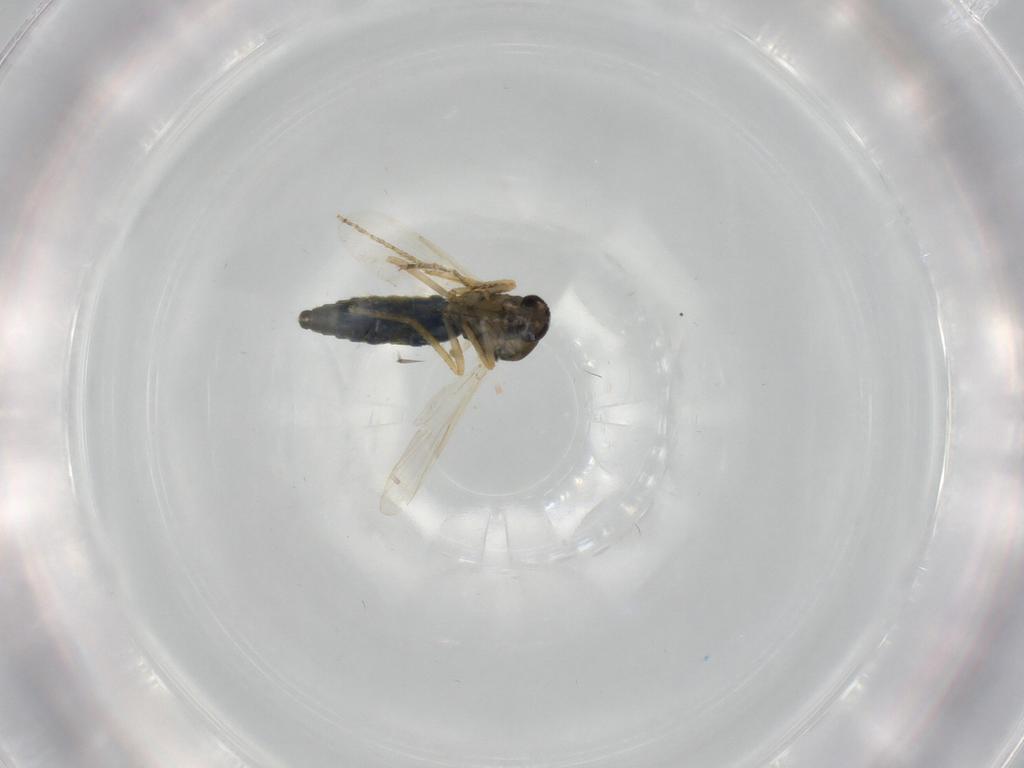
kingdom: Animalia
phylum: Arthropoda
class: Insecta
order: Diptera
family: Ceratopogonidae
